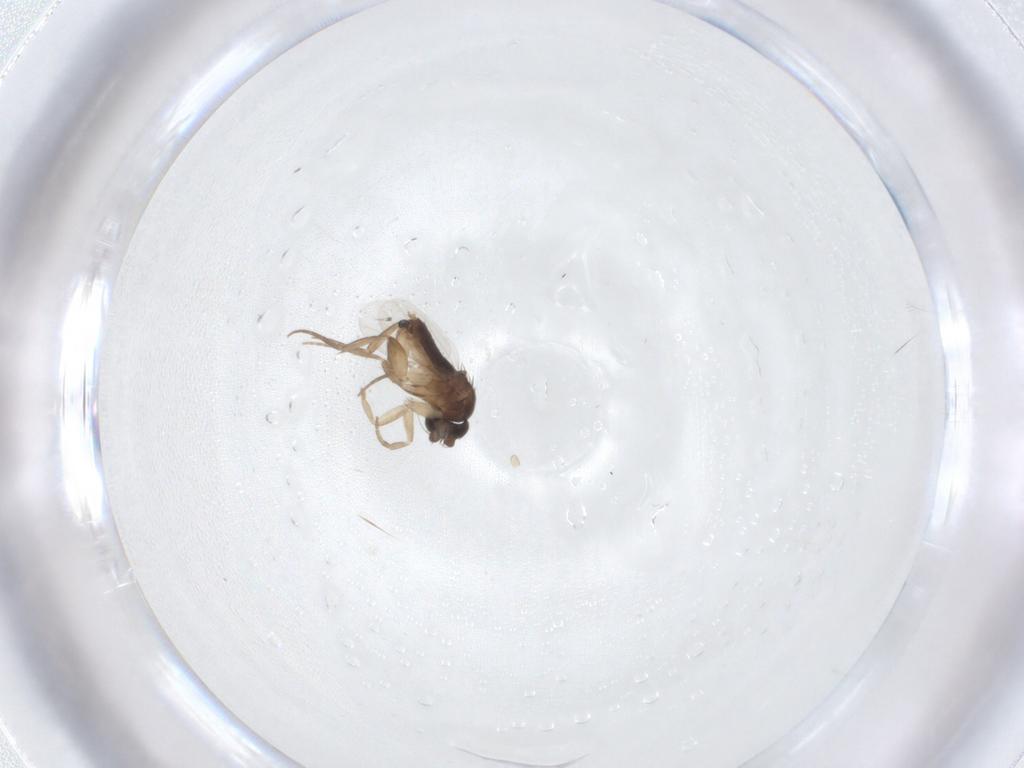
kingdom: Animalia
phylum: Arthropoda
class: Insecta
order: Diptera
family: Phoridae
